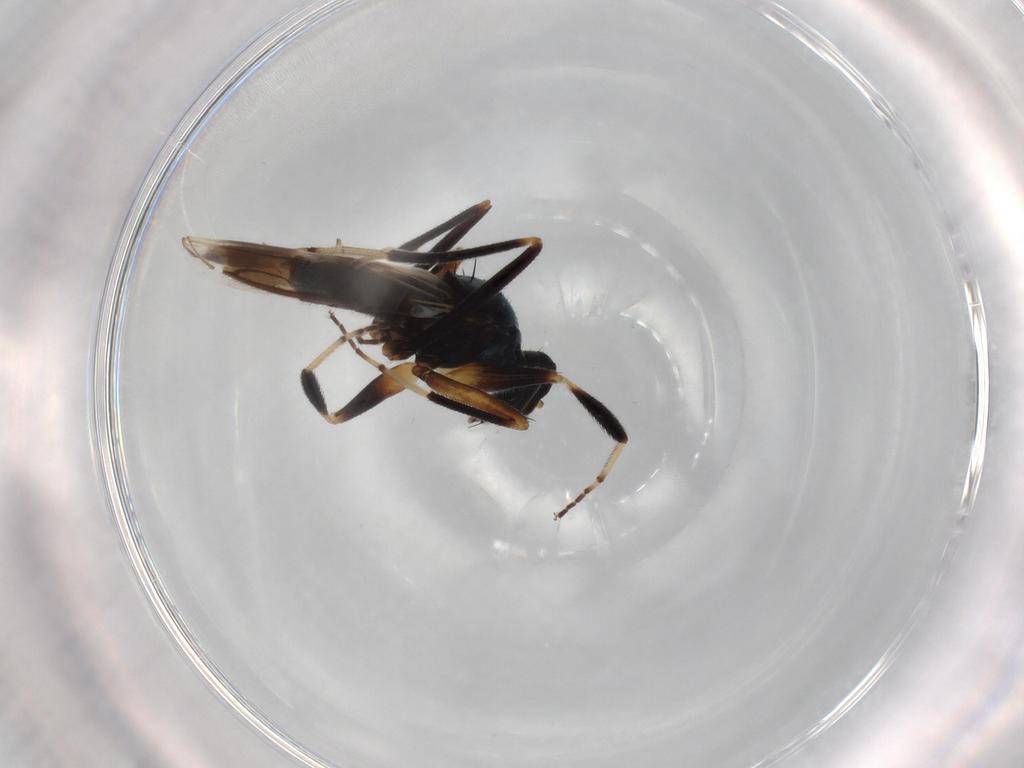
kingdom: Animalia
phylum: Arthropoda
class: Insecta
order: Diptera
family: Hybotidae
